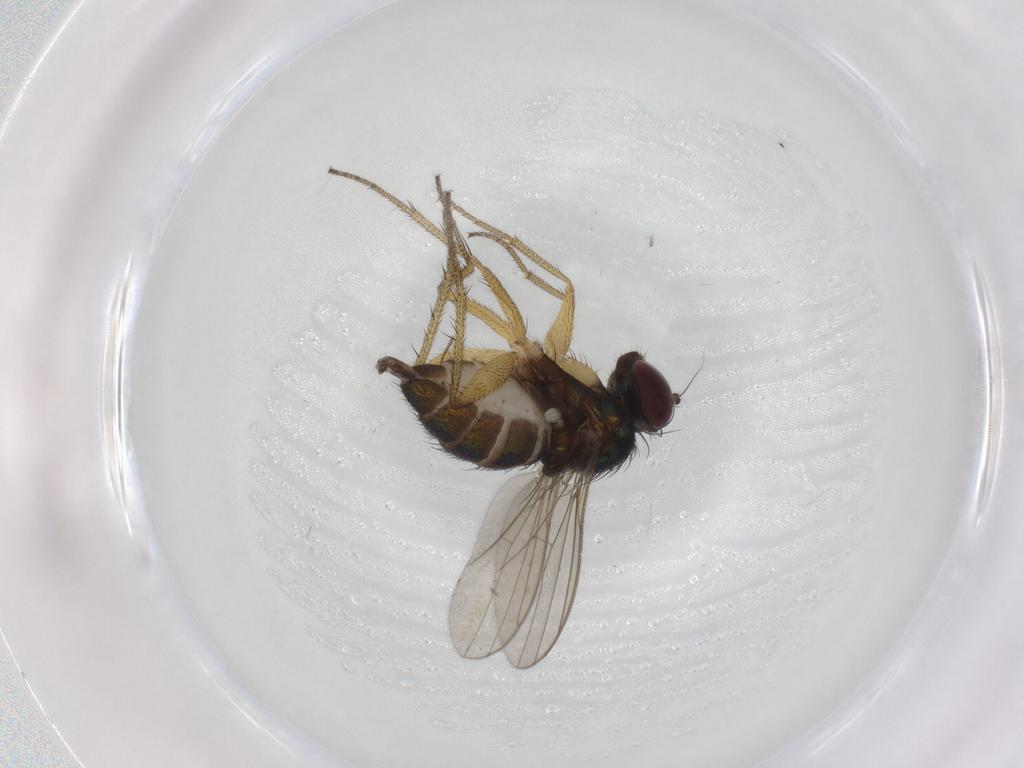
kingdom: Animalia
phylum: Arthropoda
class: Insecta
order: Diptera
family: Dolichopodidae
